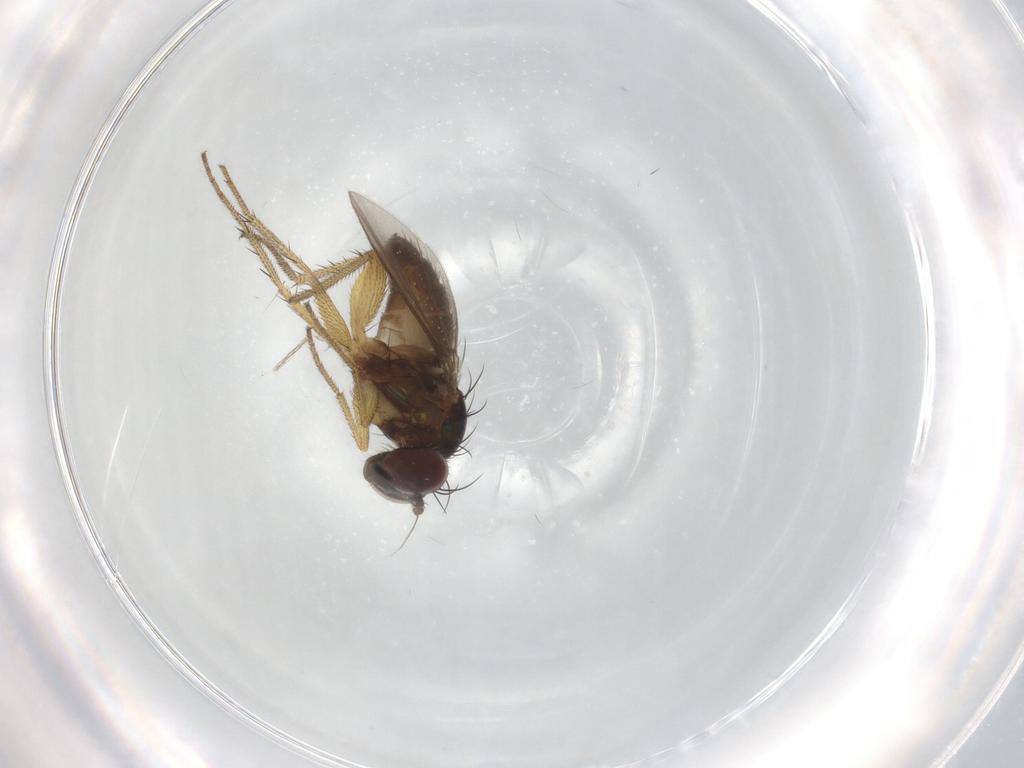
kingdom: Animalia
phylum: Arthropoda
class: Insecta
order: Diptera
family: Dolichopodidae
